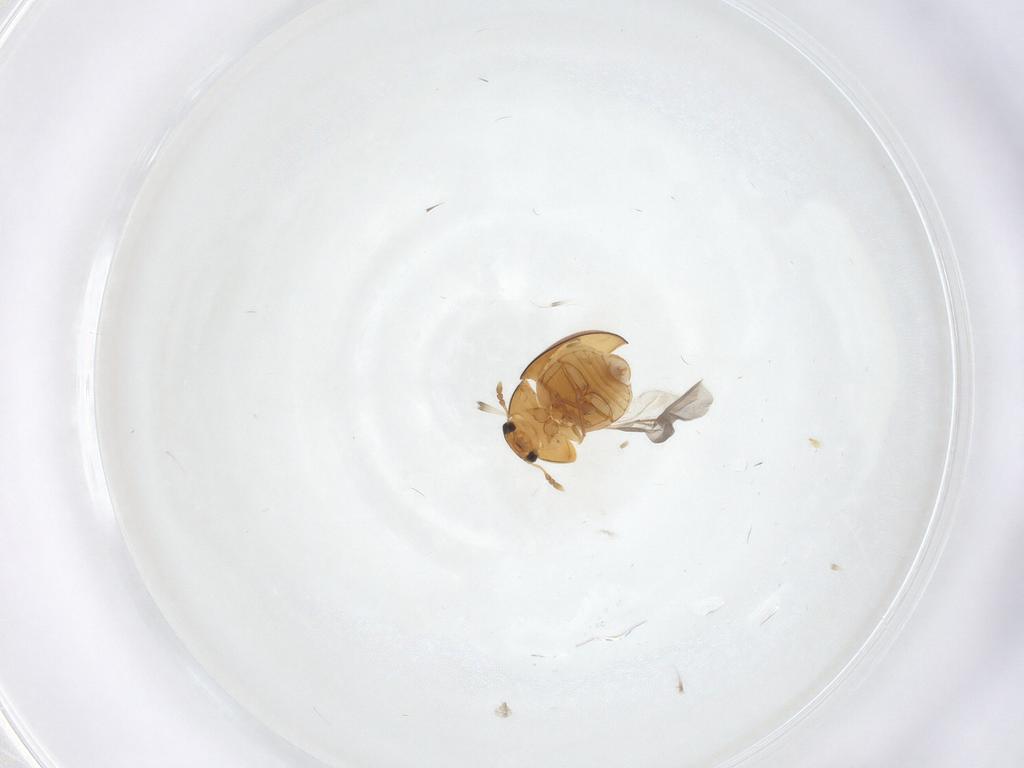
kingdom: Animalia
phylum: Arthropoda
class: Insecta
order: Coleoptera
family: Phalacridae
